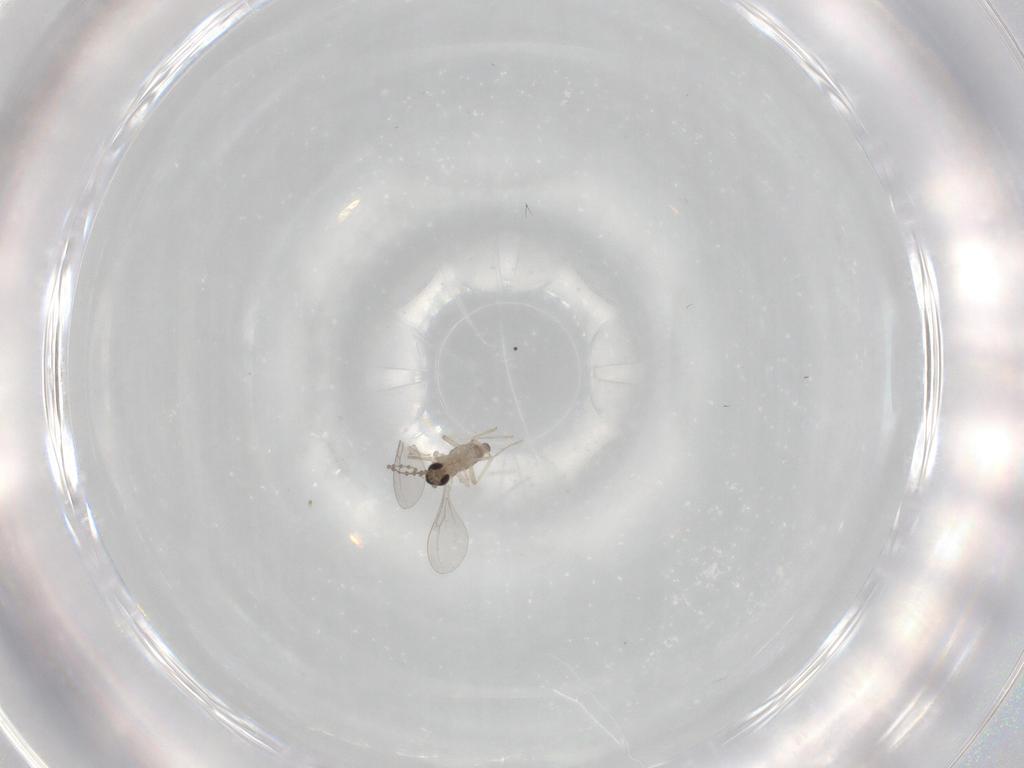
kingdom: Animalia
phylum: Arthropoda
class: Insecta
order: Diptera
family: Cecidomyiidae
